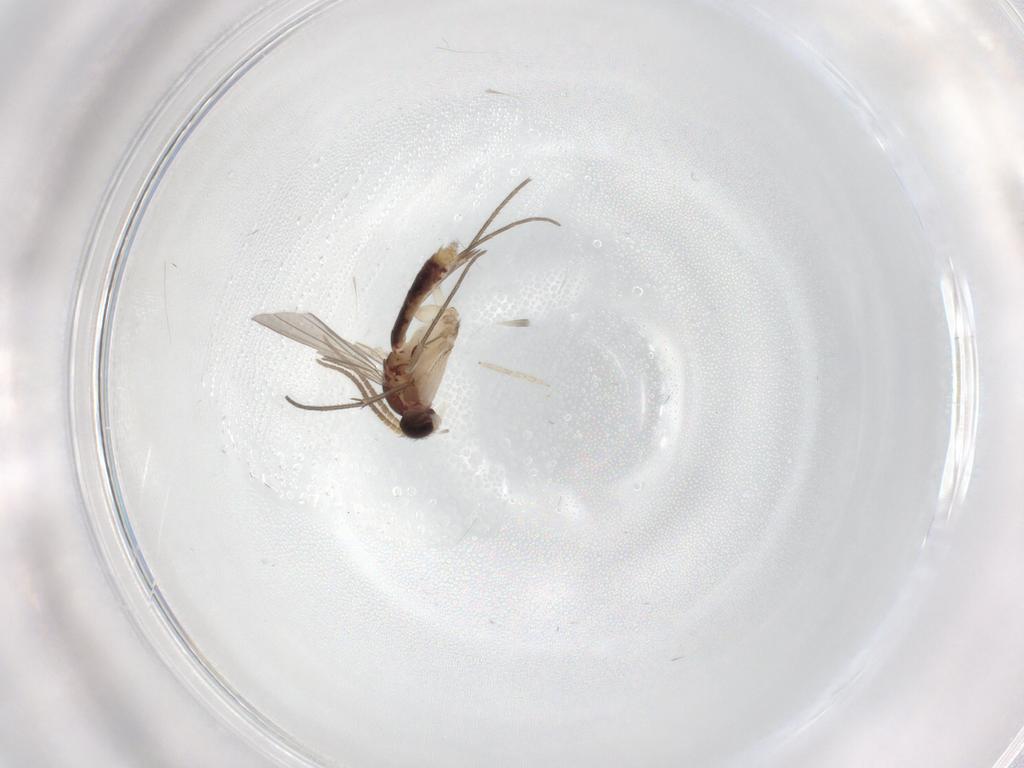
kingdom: Animalia
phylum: Arthropoda
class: Insecta
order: Diptera
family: Mycetophilidae
